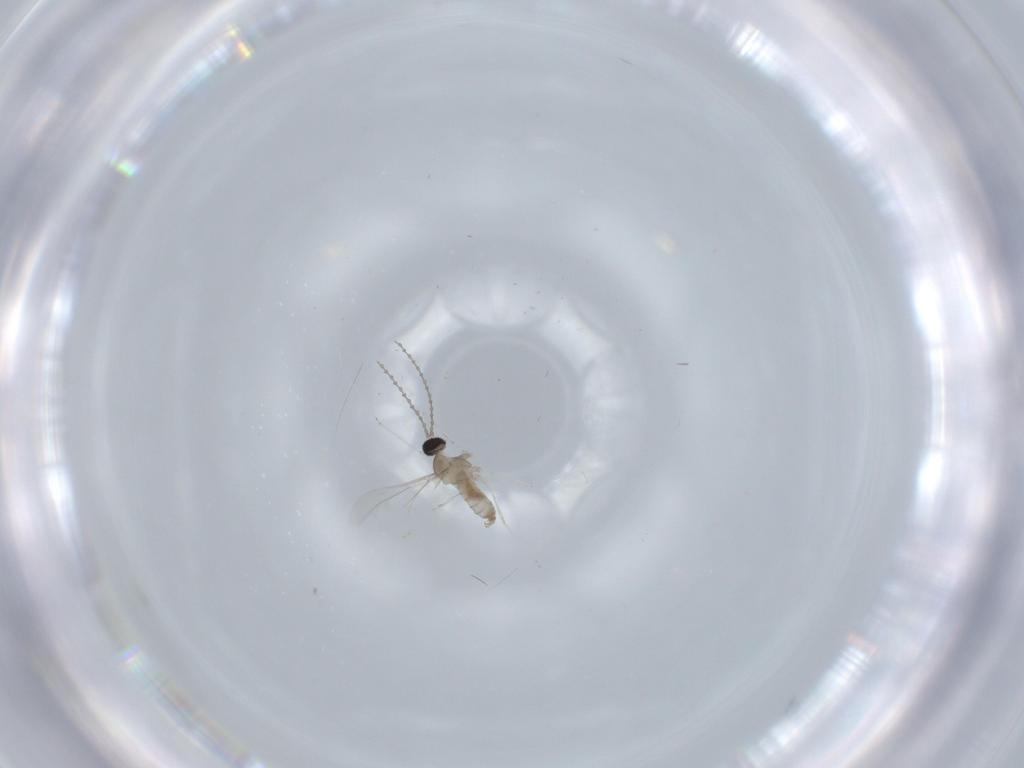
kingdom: Animalia
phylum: Arthropoda
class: Insecta
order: Diptera
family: Cecidomyiidae
